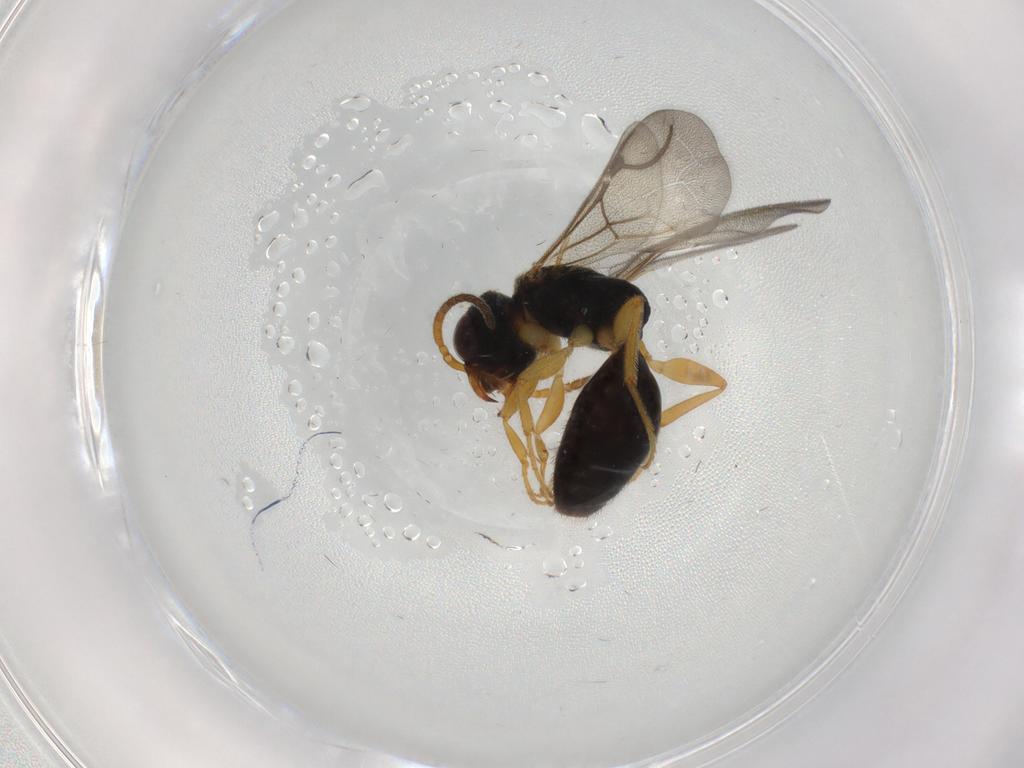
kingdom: Animalia
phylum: Arthropoda
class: Insecta
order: Hymenoptera
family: Bethylidae
